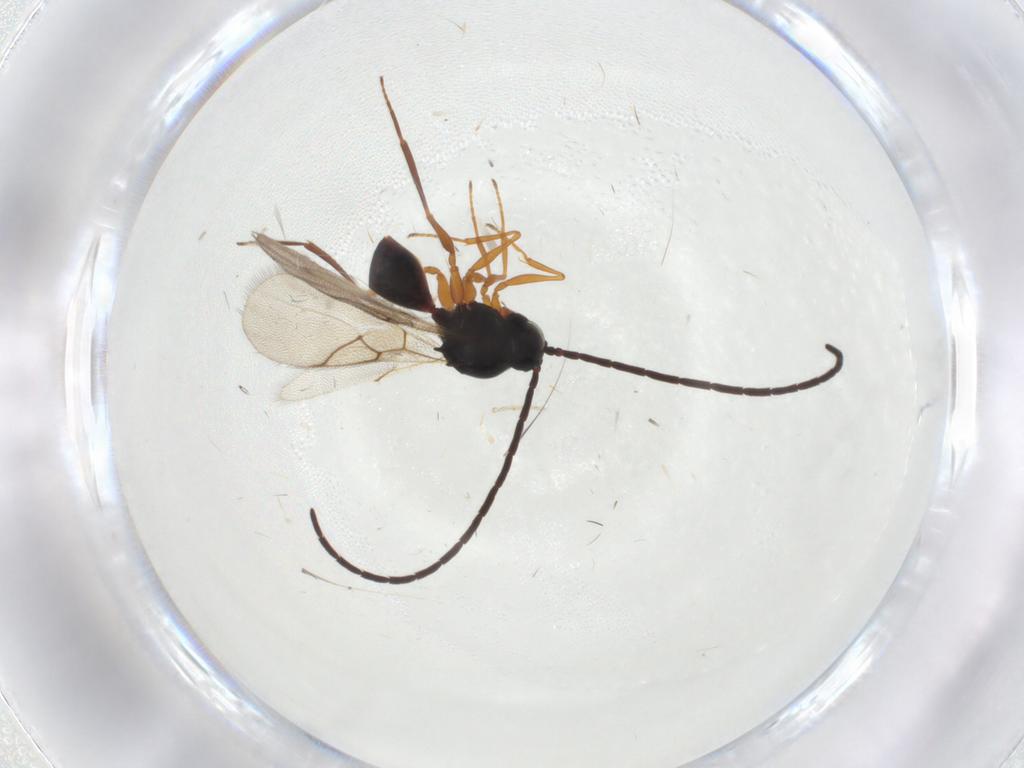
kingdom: Animalia
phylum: Arthropoda
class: Insecta
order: Hymenoptera
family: Figitidae
